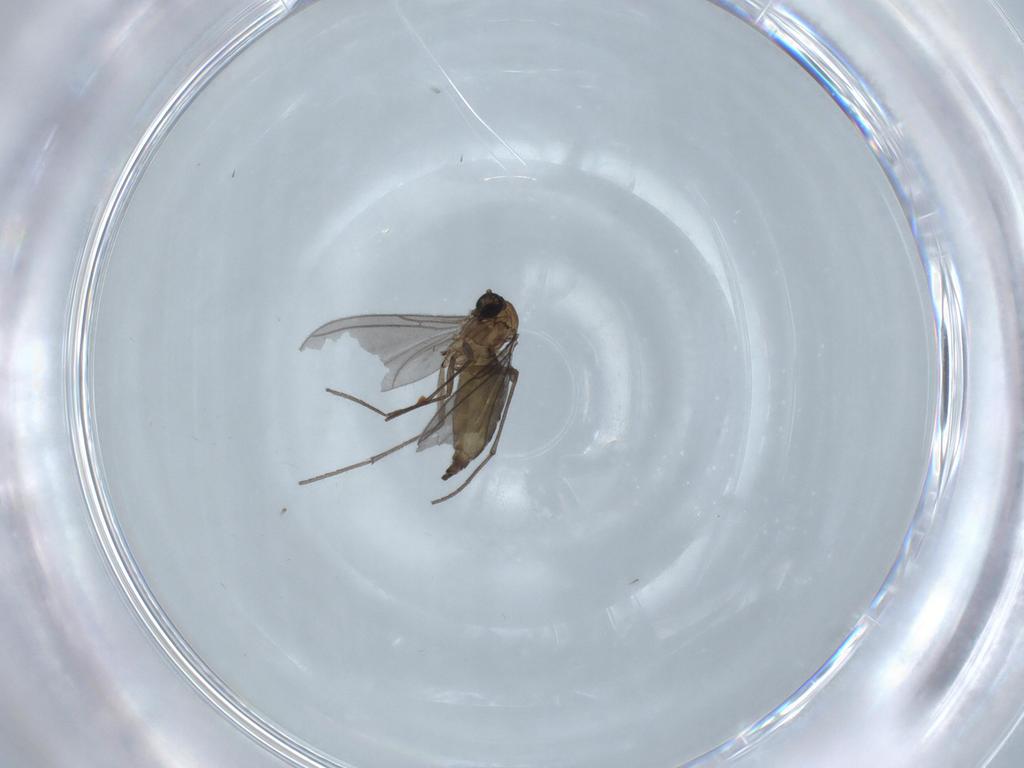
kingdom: Animalia
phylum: Arthropoda
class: Insecta
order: Diptera
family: Sciaridae
